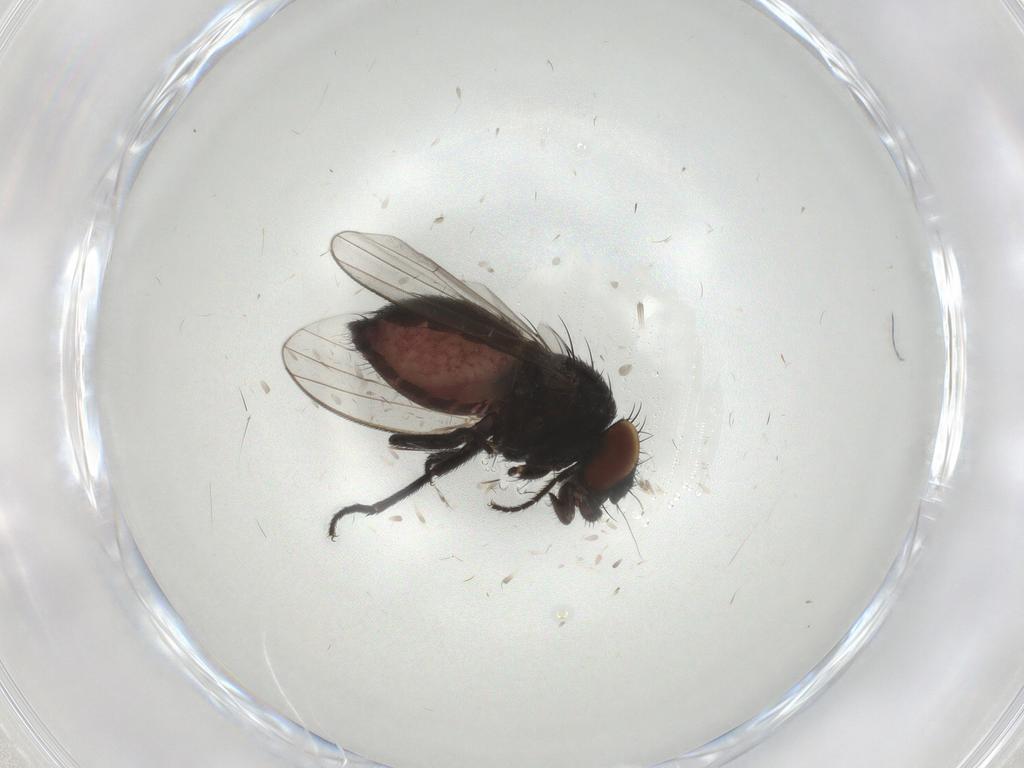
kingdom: Animalia
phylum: Arthropoda
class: Insecta
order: Diptera
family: Milichiidae
